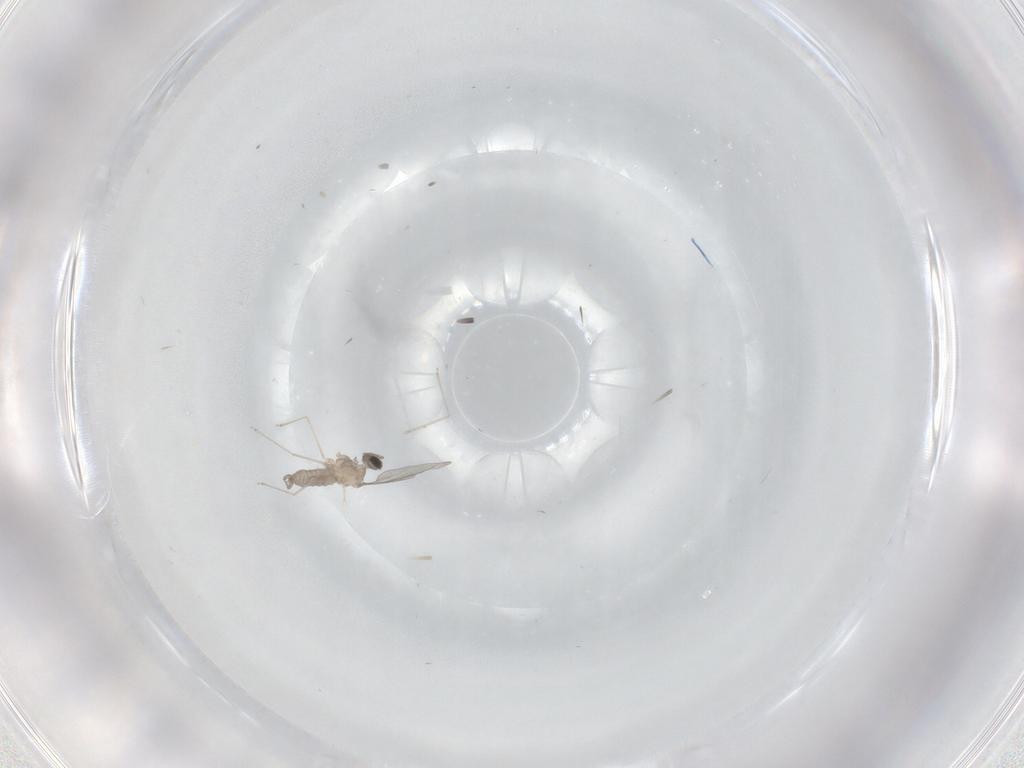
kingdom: Animalia
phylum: Arthropoda
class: Insecta
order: Diptera
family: Cecidomyiidae
